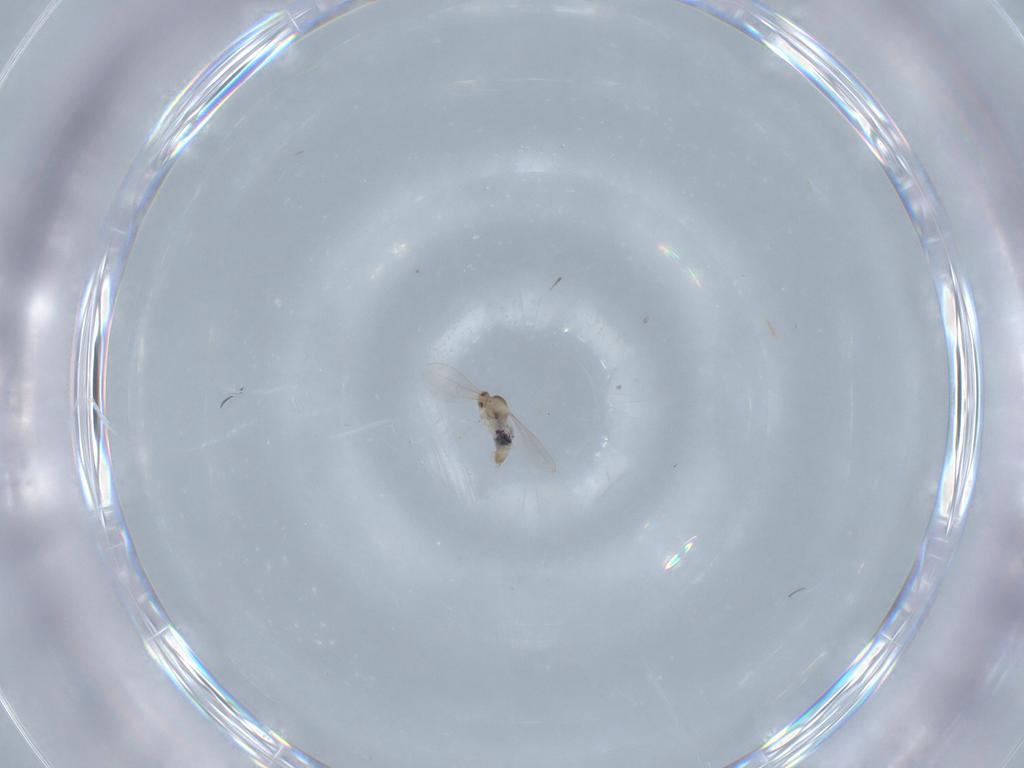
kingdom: Animalia
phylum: Arthropoda
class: Insecta
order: Diptera
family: Cecidomyiidae
